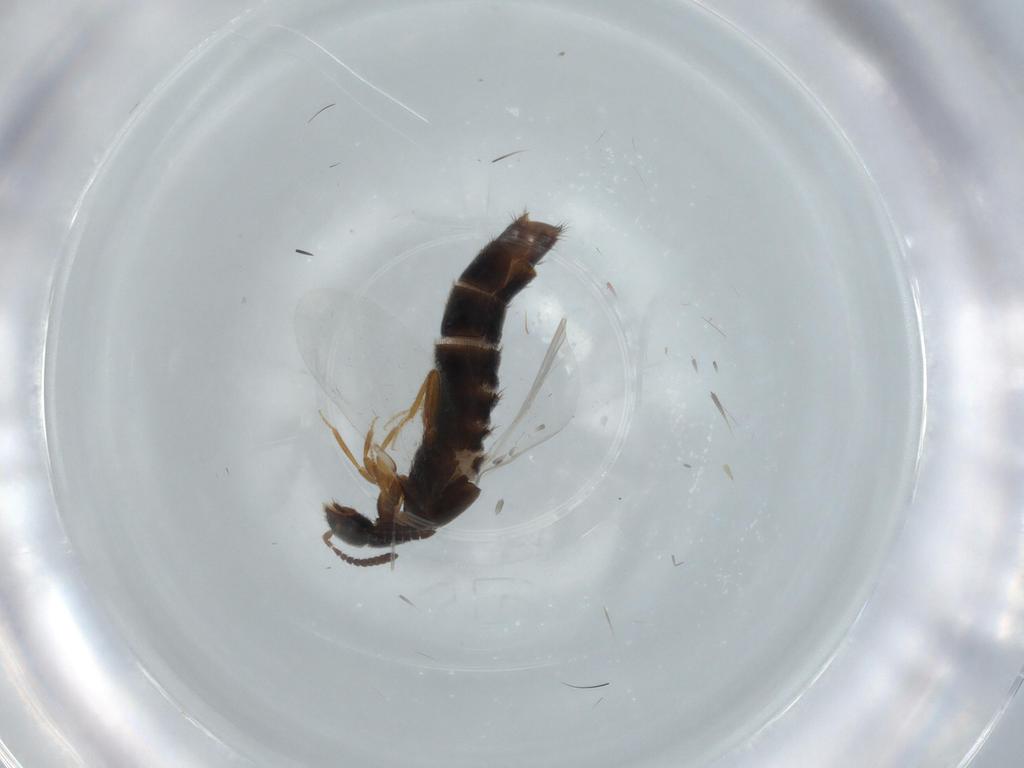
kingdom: Animalia
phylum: Arthropoda
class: Insecta
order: Coleoptera
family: Staphylinidae
